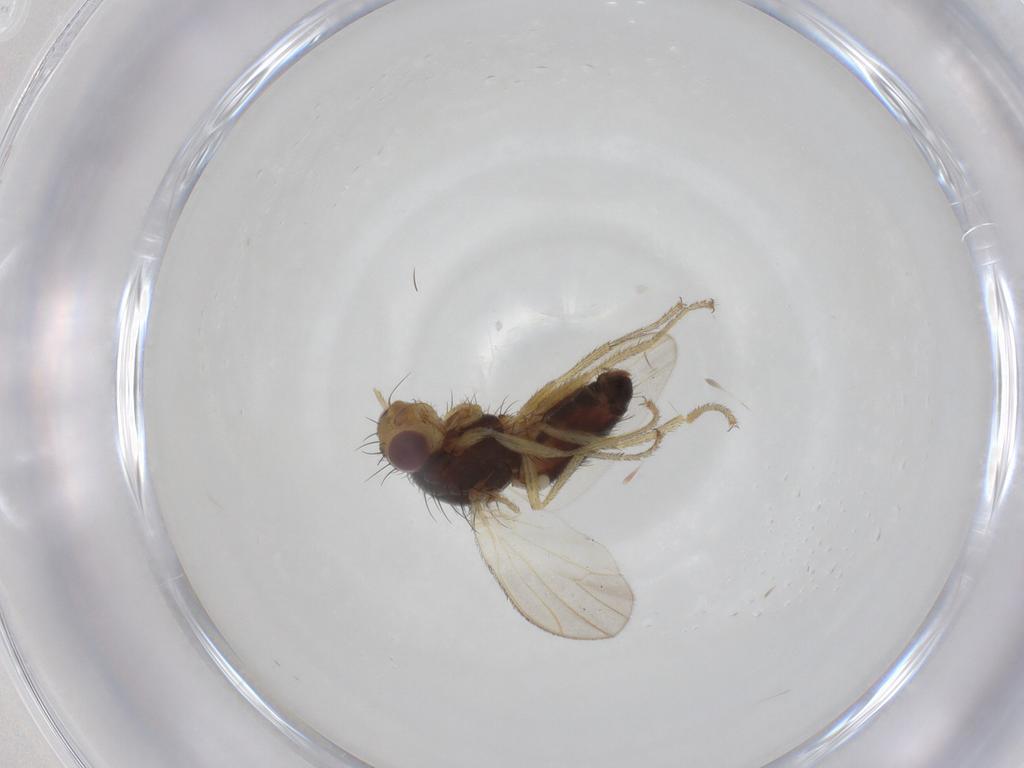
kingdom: Animalia
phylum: Arthropoda
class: Insecta
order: Diptera
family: Heleomyzidae
